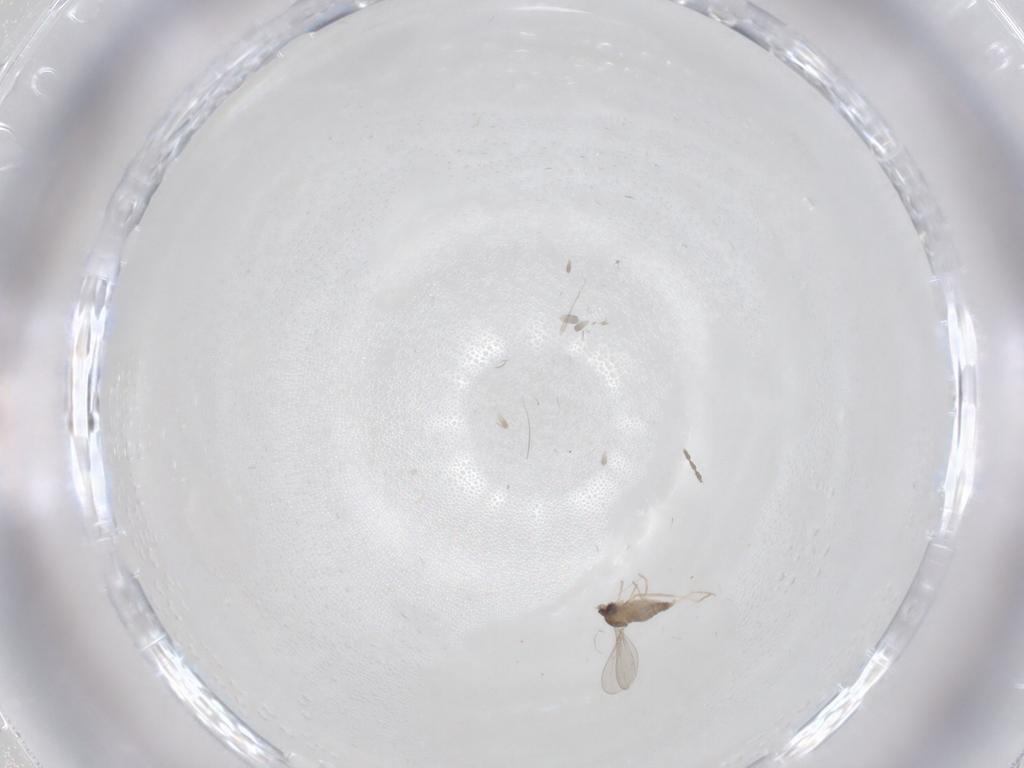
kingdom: Animalia
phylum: Arthropoda
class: Insecta
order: Diptera
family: Cecidomyiidae
